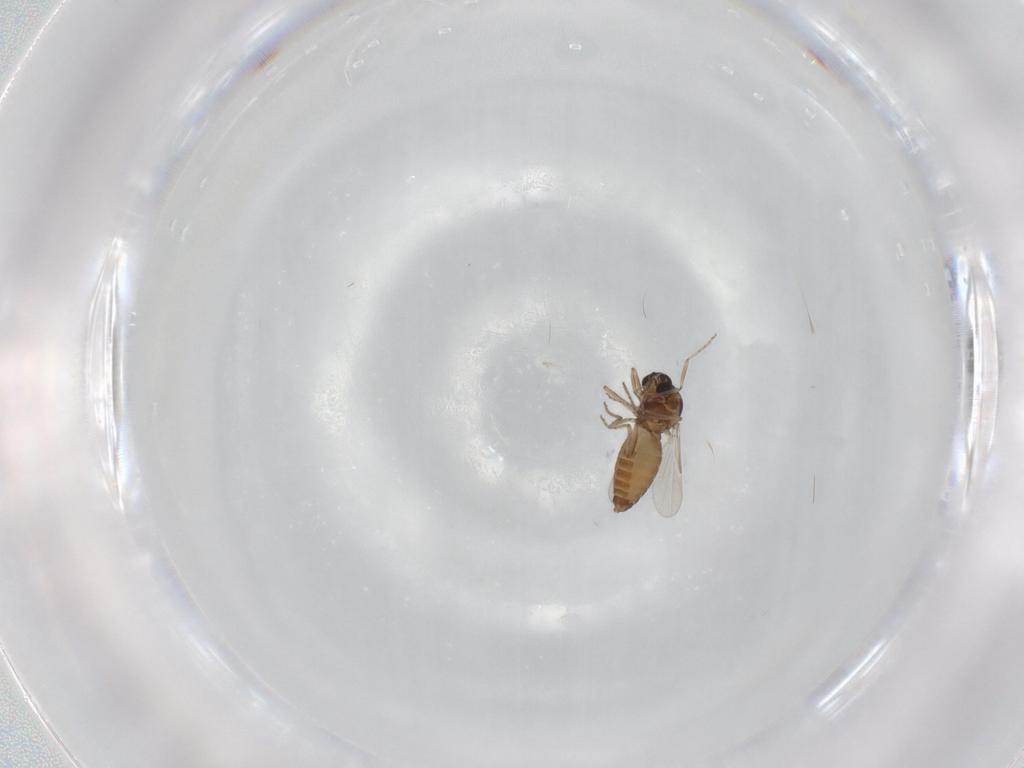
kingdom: Animalia
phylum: Arthropoda
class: Insecta
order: Diptera
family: Ceratopogonidae
